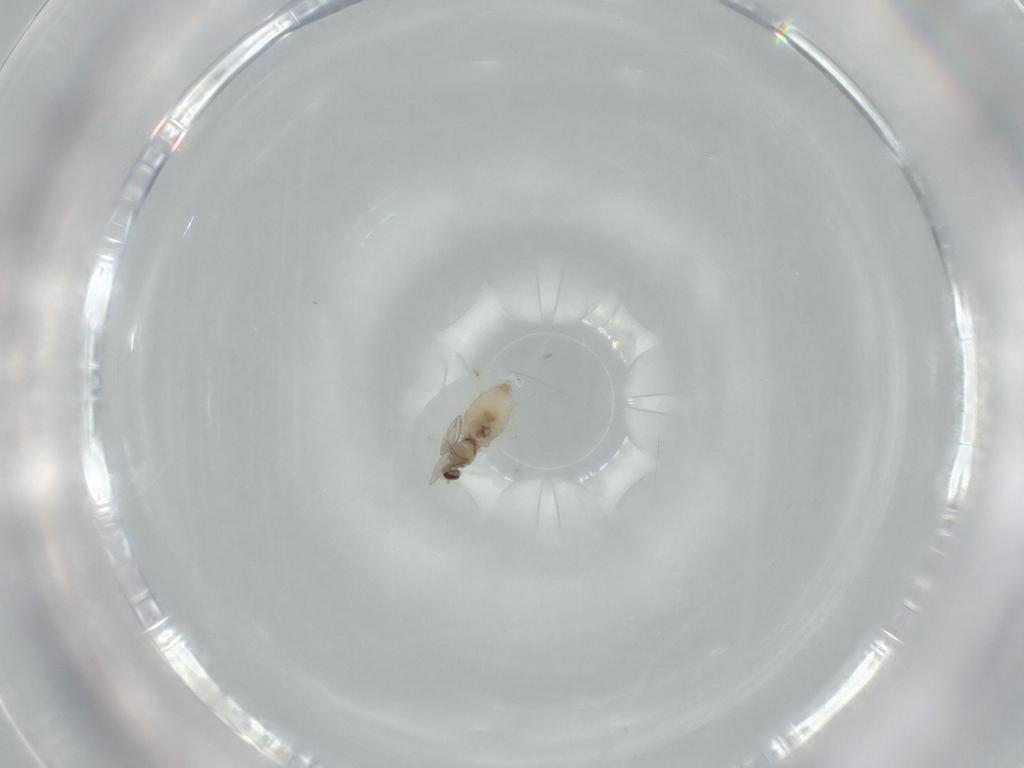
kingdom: Animalia
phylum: Arthropoda
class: Insecta
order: Diptera
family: Cecidomyiidae
